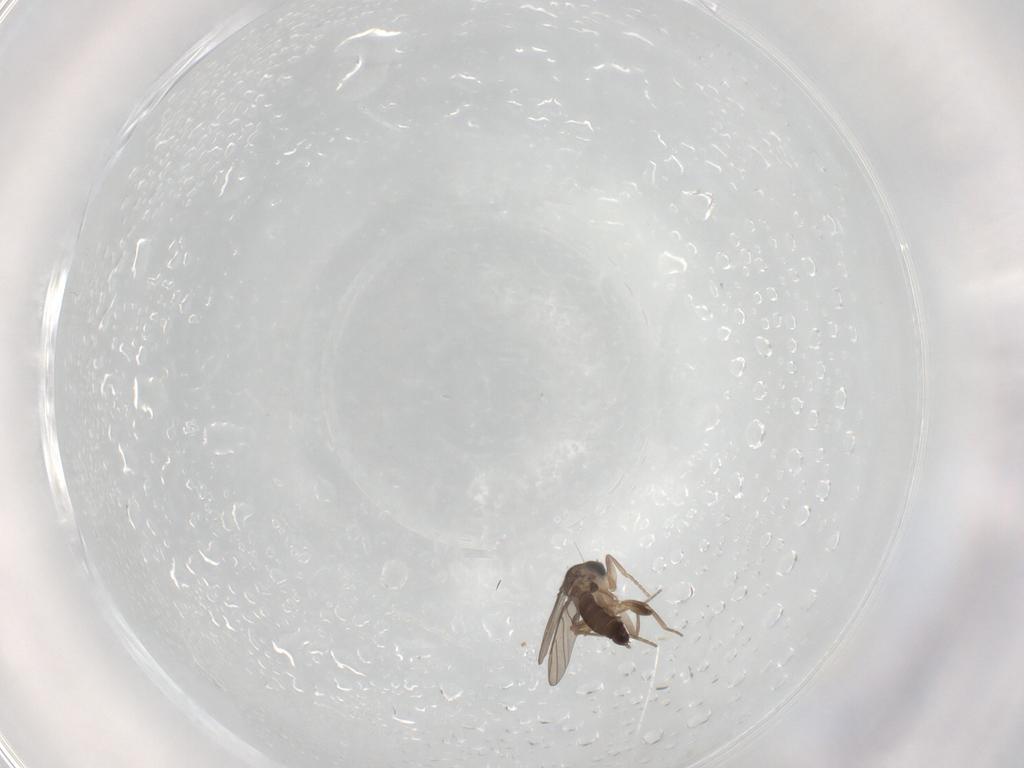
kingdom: Animalia
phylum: Arthropoda
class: Insecta
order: Diptera
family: Phoridae
